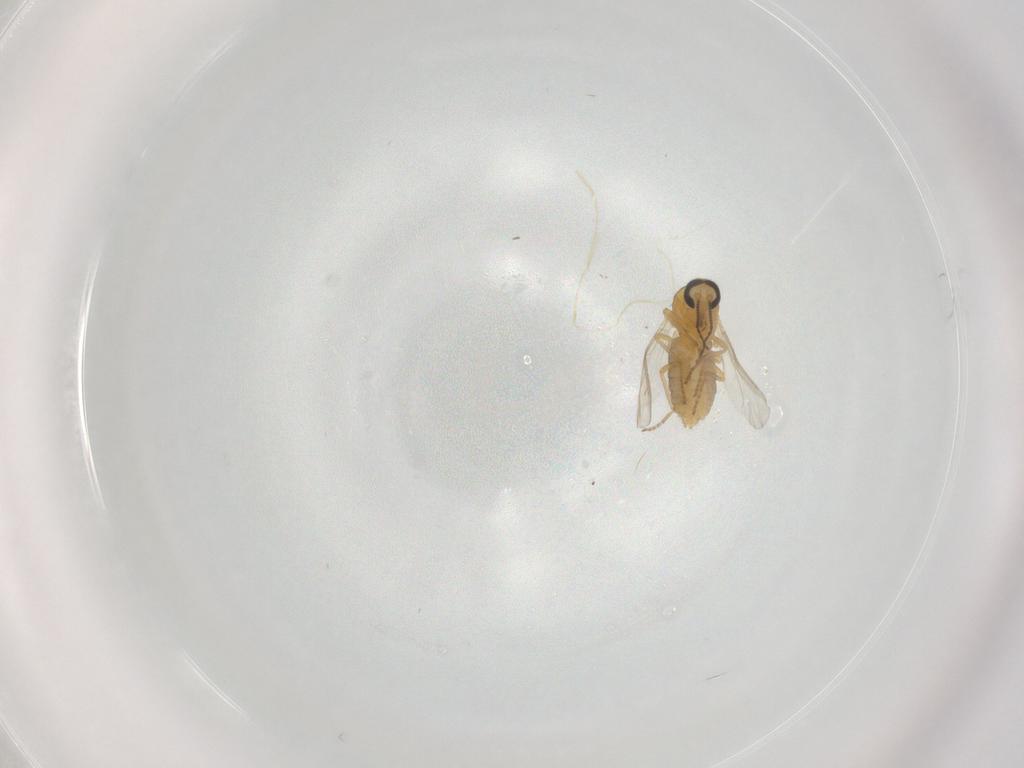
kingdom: Animalia
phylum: Arthropoda
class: Insecta
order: Diptera
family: Ceratopogonidae
